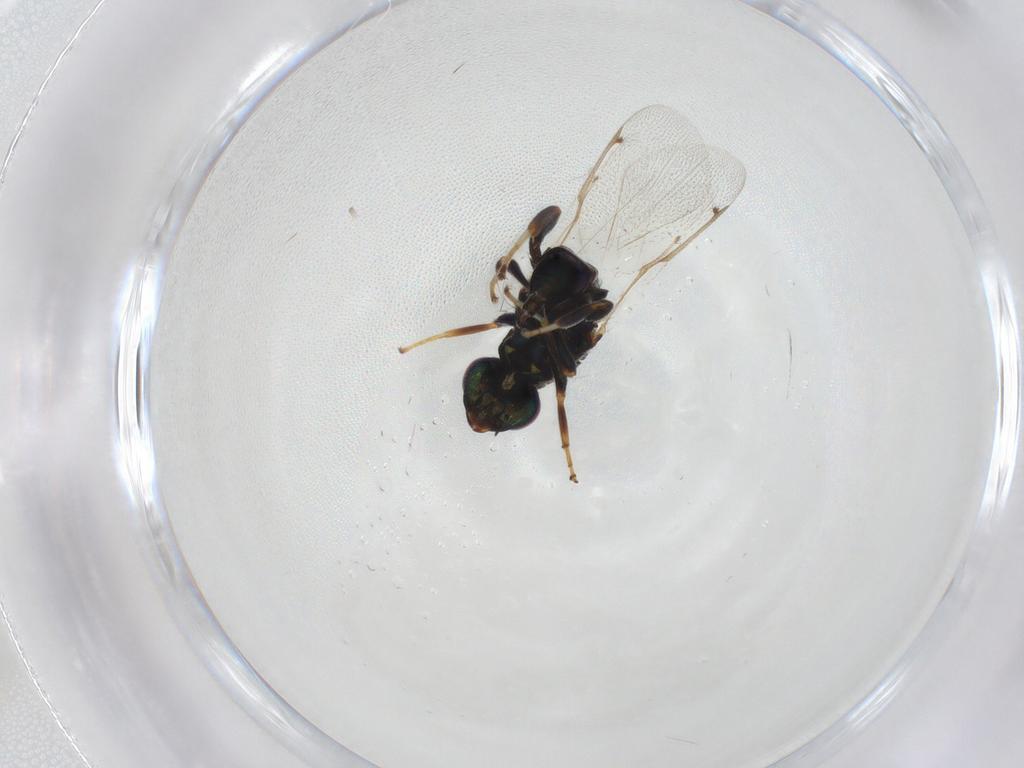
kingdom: Animalia
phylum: Arthropoda
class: Insecta
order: Hymenoptera
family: Torymidae
